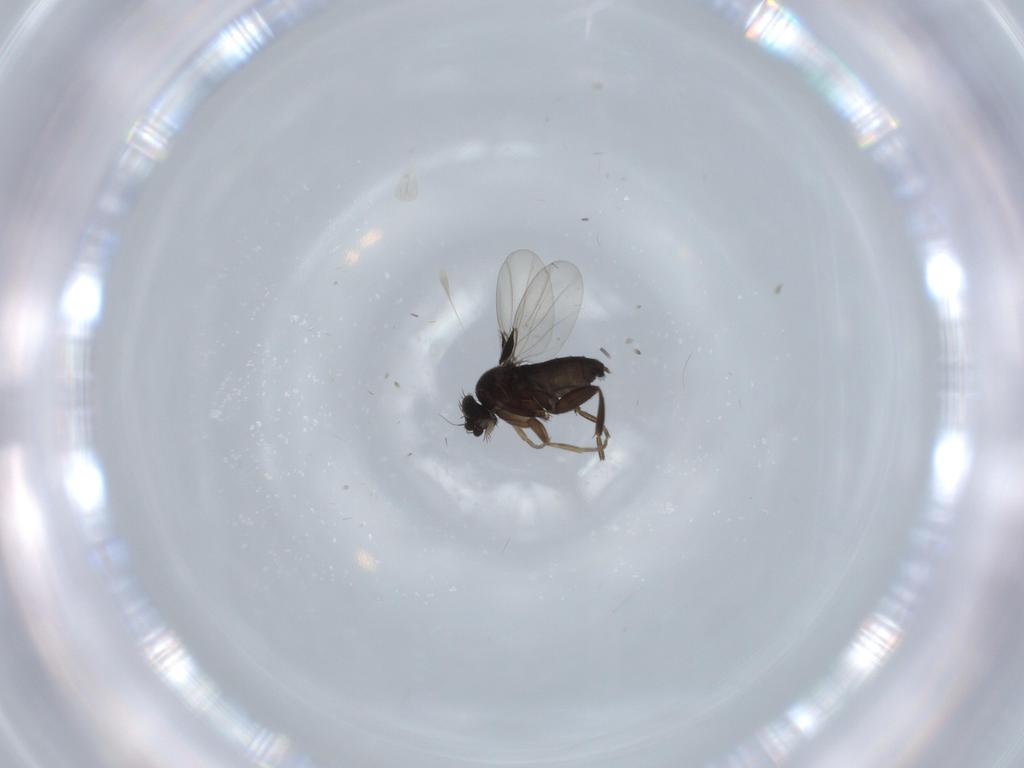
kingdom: Animalia
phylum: Arthropoda
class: Insecta
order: Diptera
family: Phoridae
